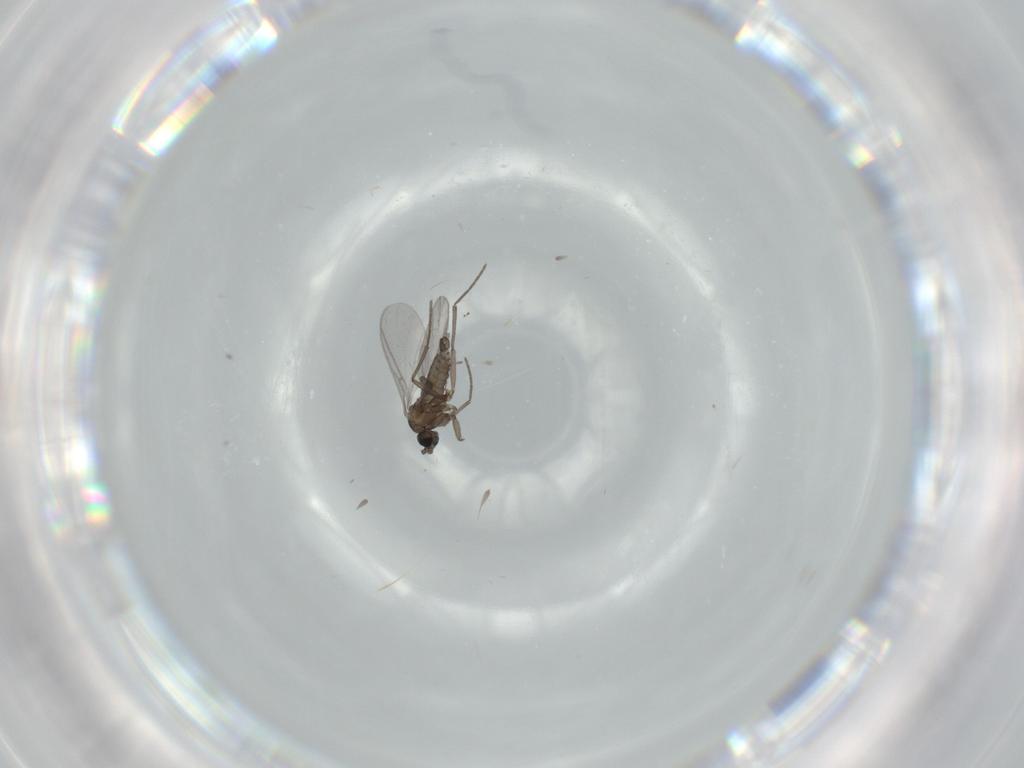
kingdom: Animalia
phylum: Arthropoda
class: Insecta
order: Diptera
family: Sciaridae
